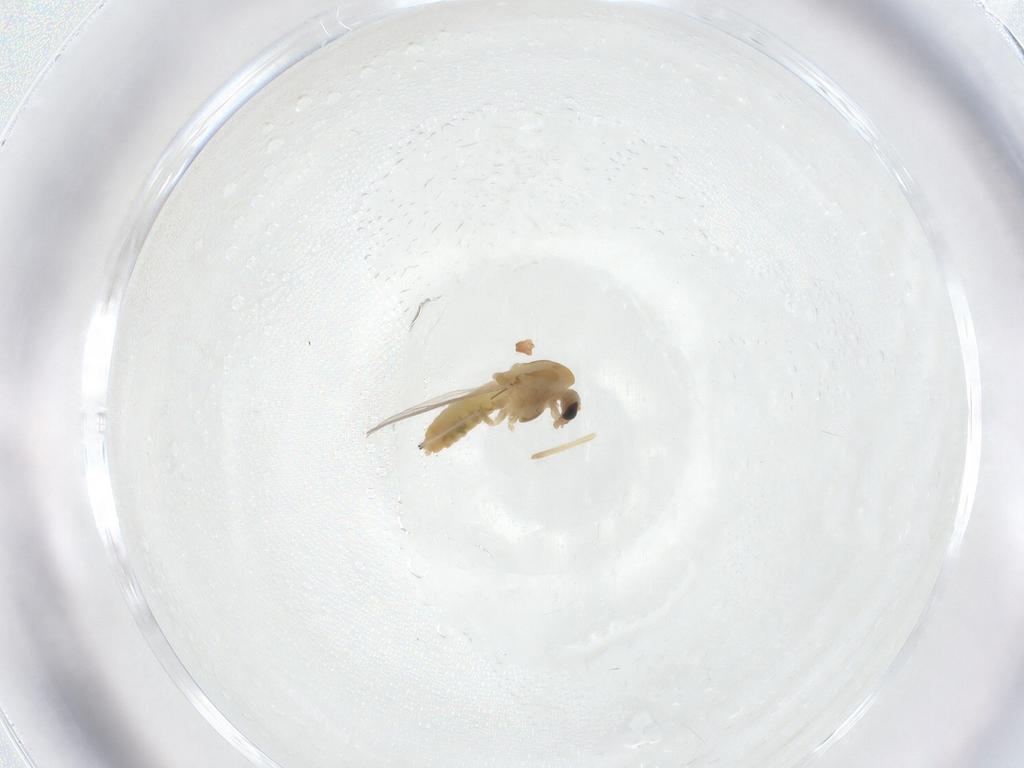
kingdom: Animalia
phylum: Arthropoda
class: Insecta
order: Diptera
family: Chironomidae
